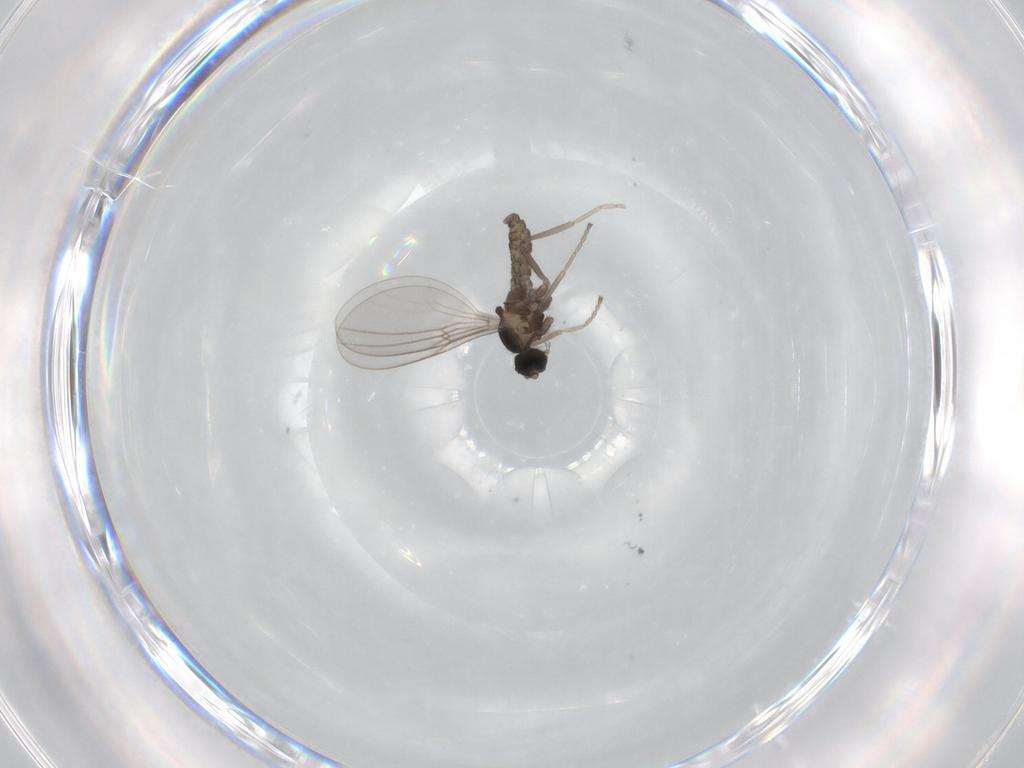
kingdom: Animalia
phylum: Arthropoda
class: Insecta
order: Diptera
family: Cecidomyiidae
